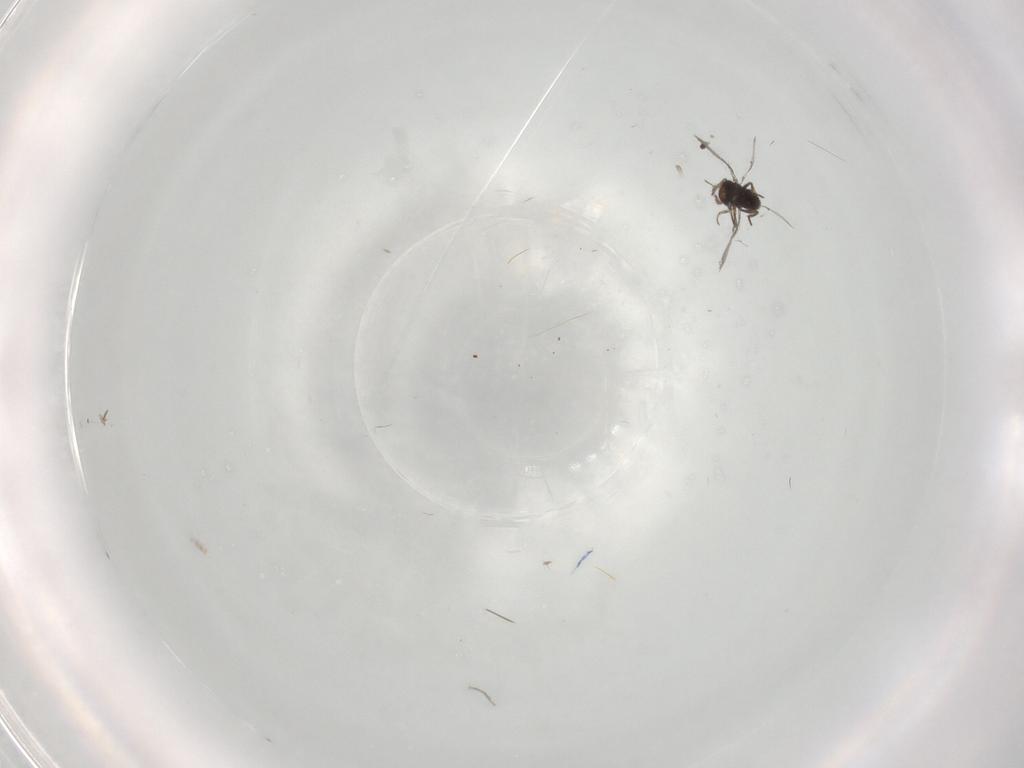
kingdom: Animalia
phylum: Arthropoda
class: Insecta
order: Hymenoptera
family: Trichogrammatidae
